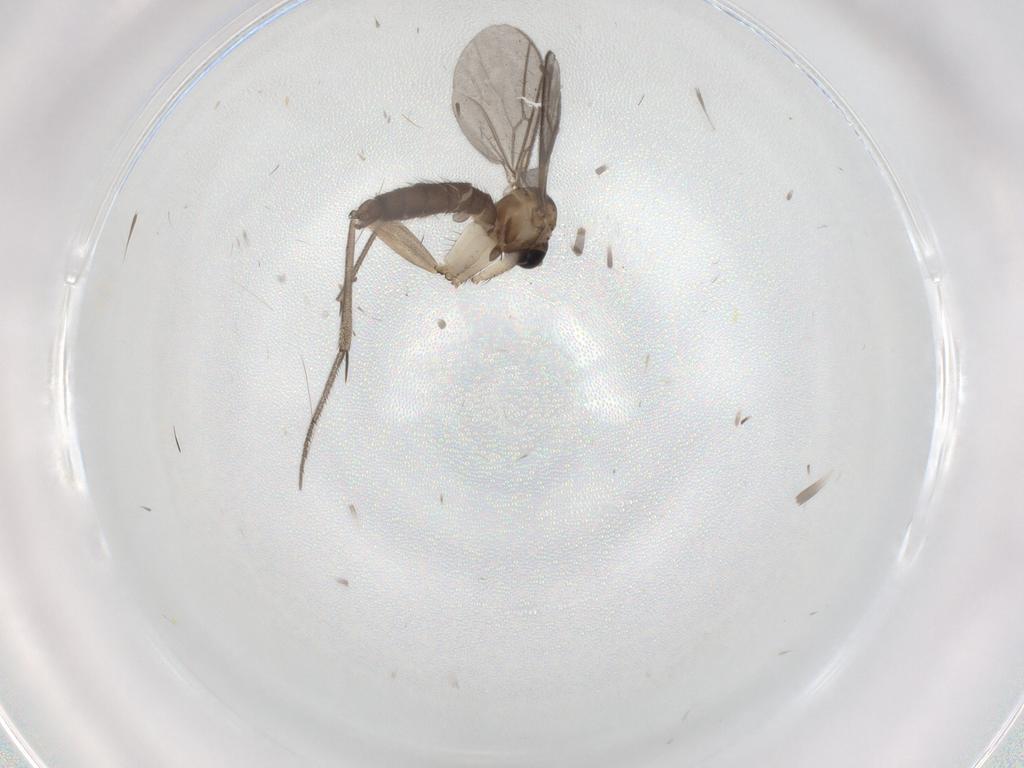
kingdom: Animalia
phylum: Arthropoda
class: Insecta
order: Diptera
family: Mycetophilidae
